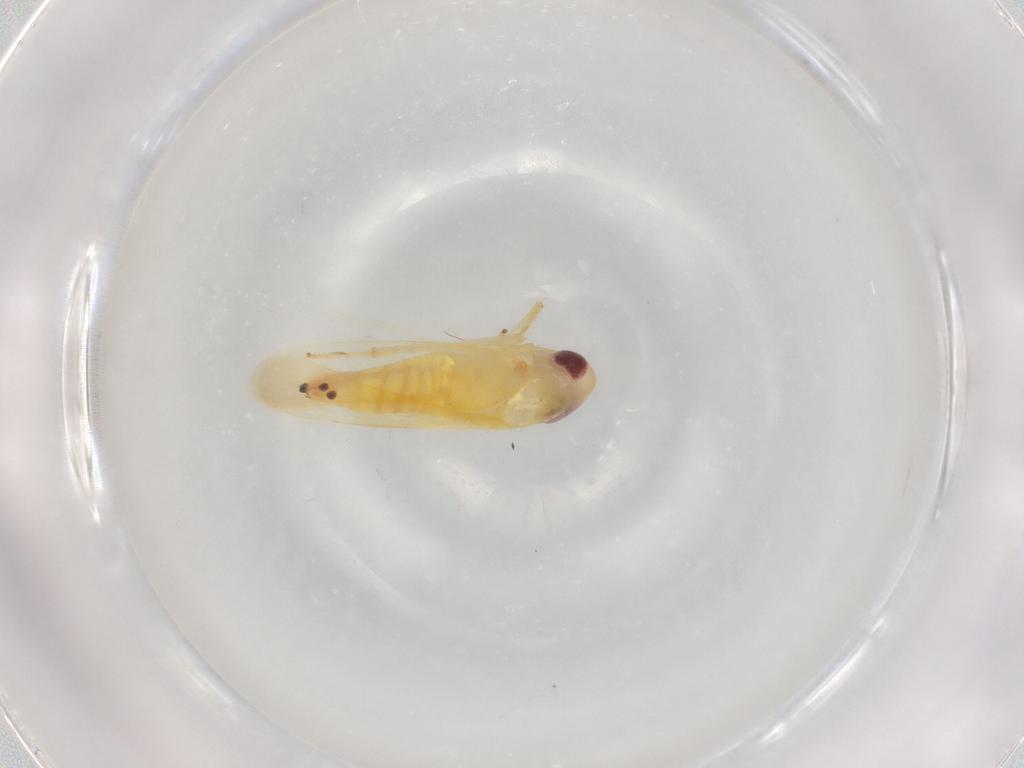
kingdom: Animalia
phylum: Arthropoda
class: Insecta
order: Hemiptera
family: Cicadellidae
